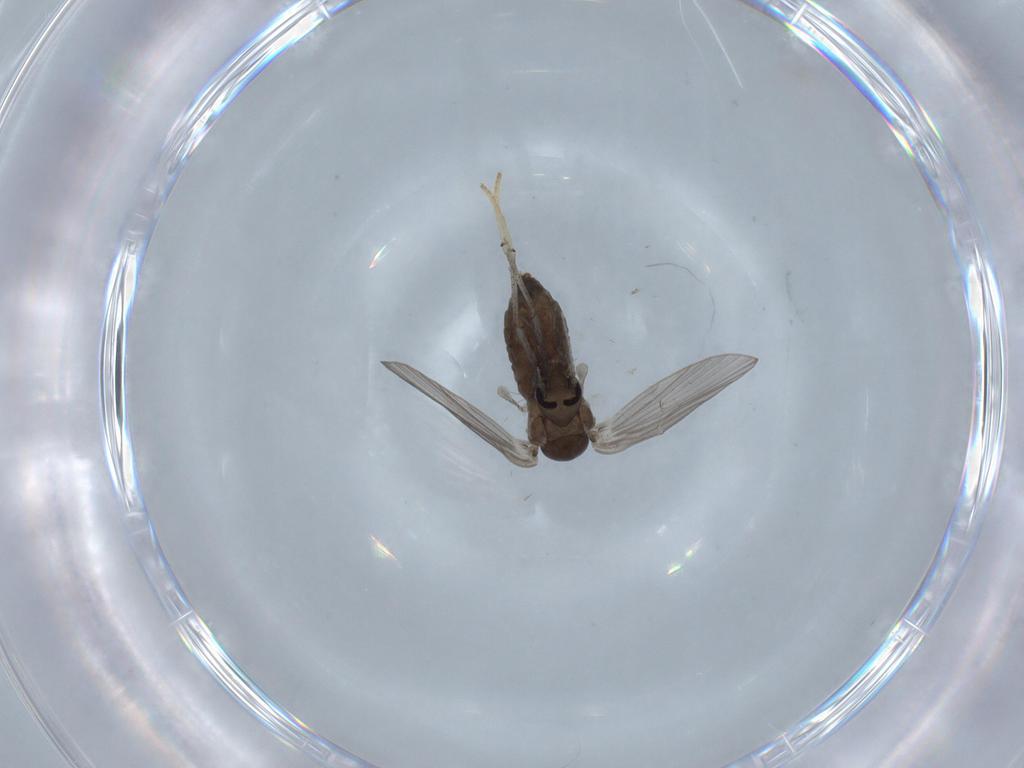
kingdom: Animalia
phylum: Arthropoda
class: Insecta
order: Diptera
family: Psychodidae
